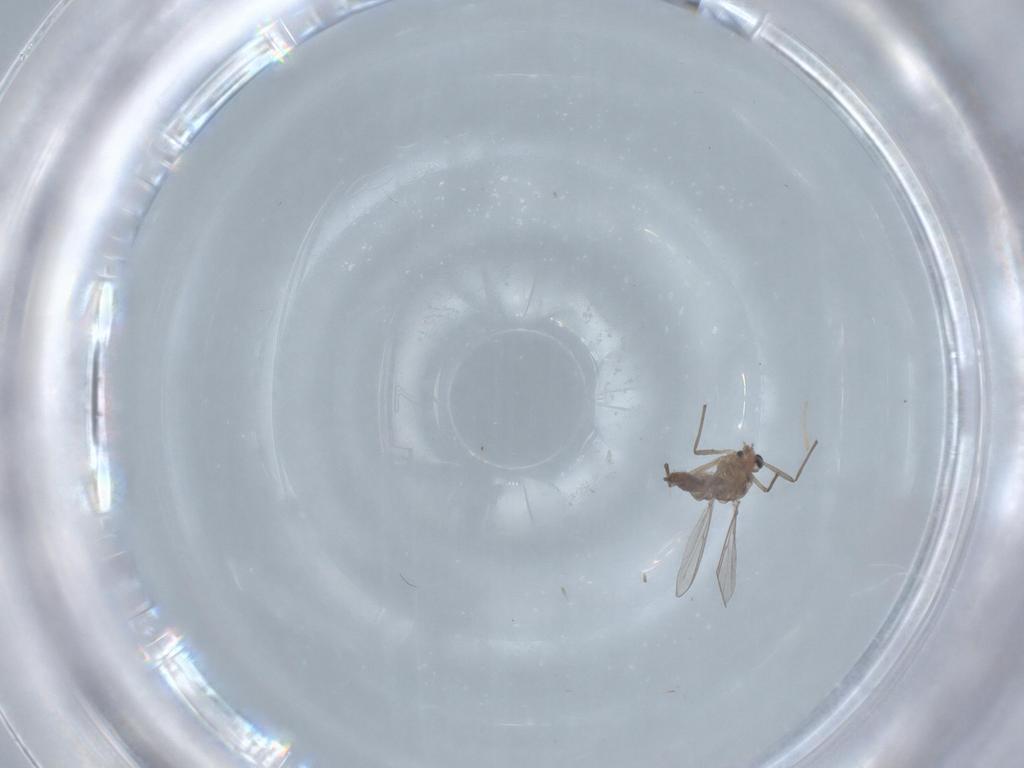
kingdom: Animalia
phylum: Arthropoda
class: Insecta
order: Diptera
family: Chironomidae
